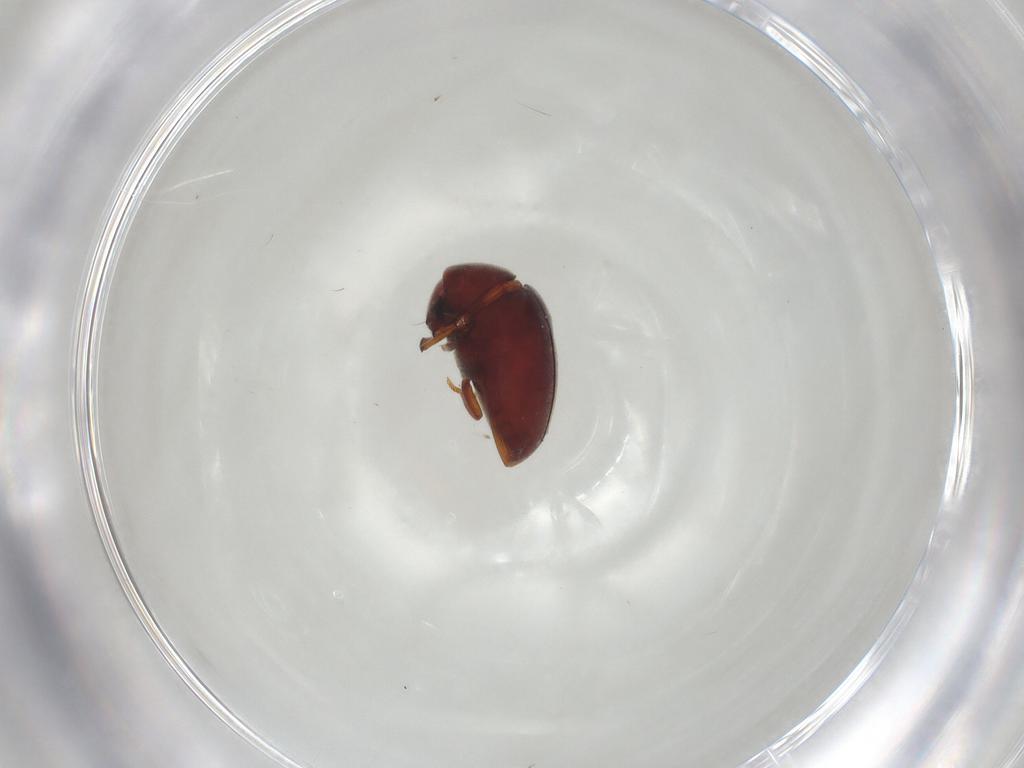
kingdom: Animalia
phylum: Arthropoda
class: Insecta
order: Coleoptera
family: Ptinidae
